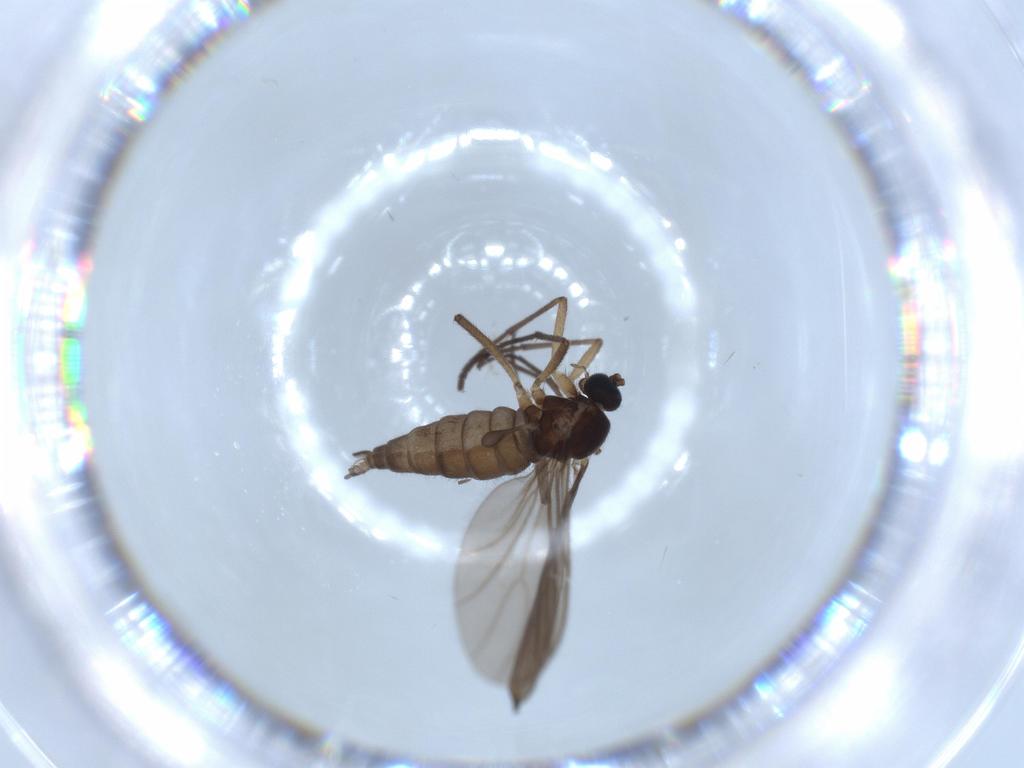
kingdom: Animalia
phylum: Arthropoda
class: Insecta
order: Diptera
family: Sciaridae
